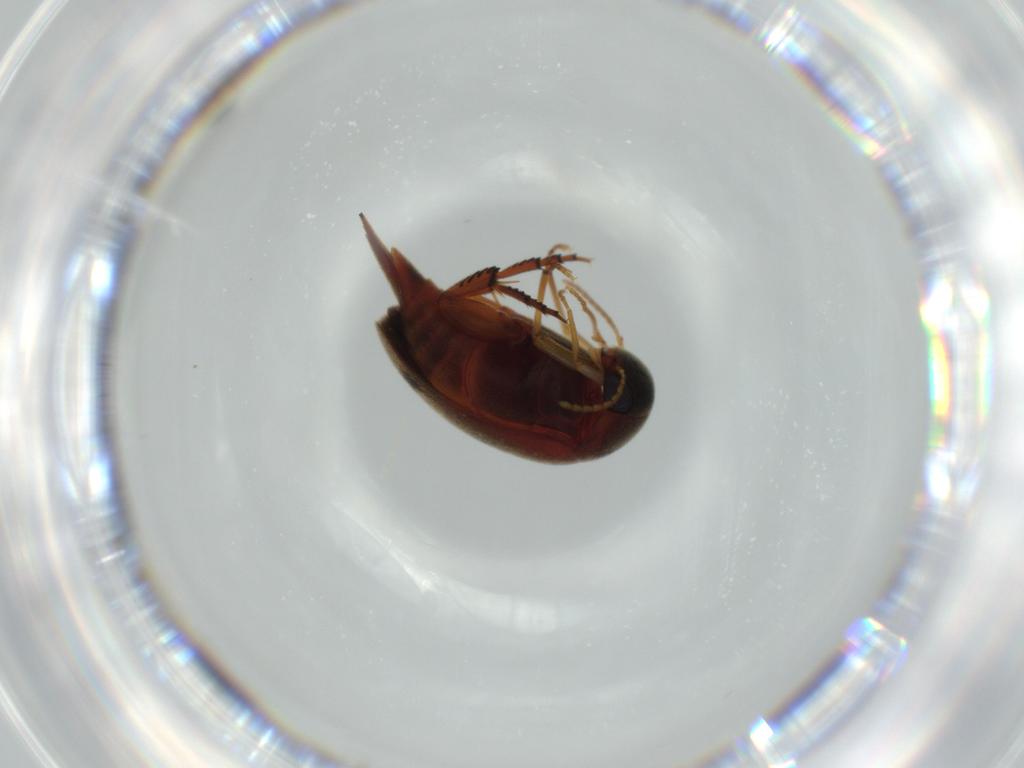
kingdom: Animalia
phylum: Arthropoda
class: Insecta
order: Coleoptera
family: Mordellidae
